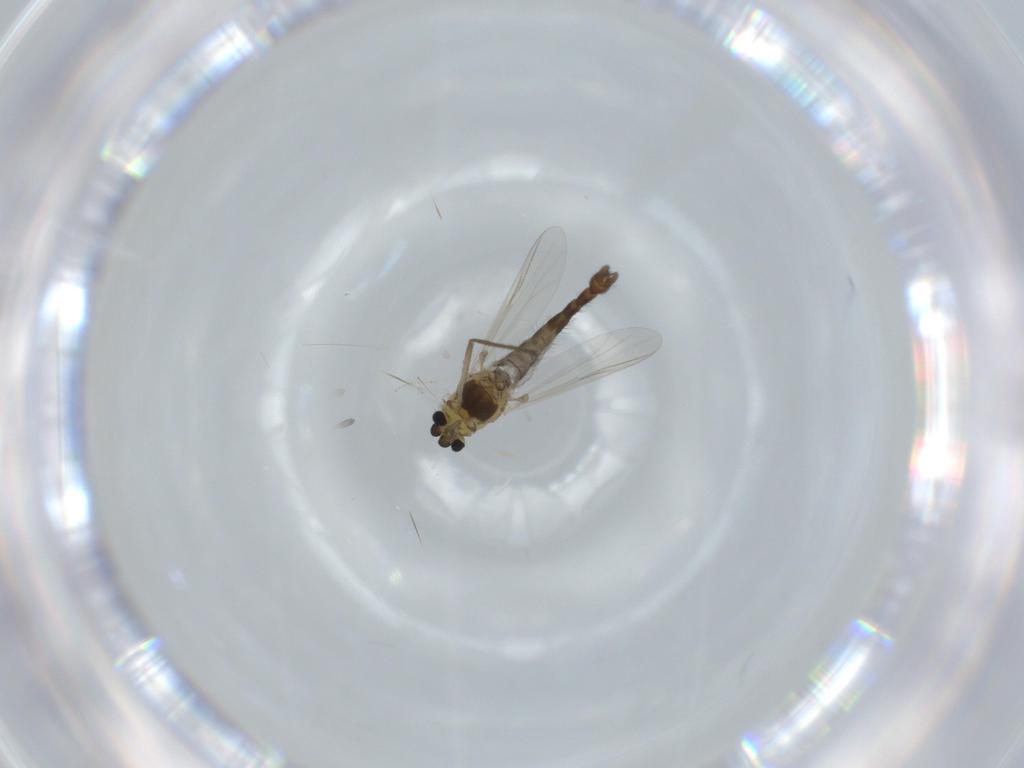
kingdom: Animalia
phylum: Arthropoda
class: Insecta
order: Diptera
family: Chironomidae
